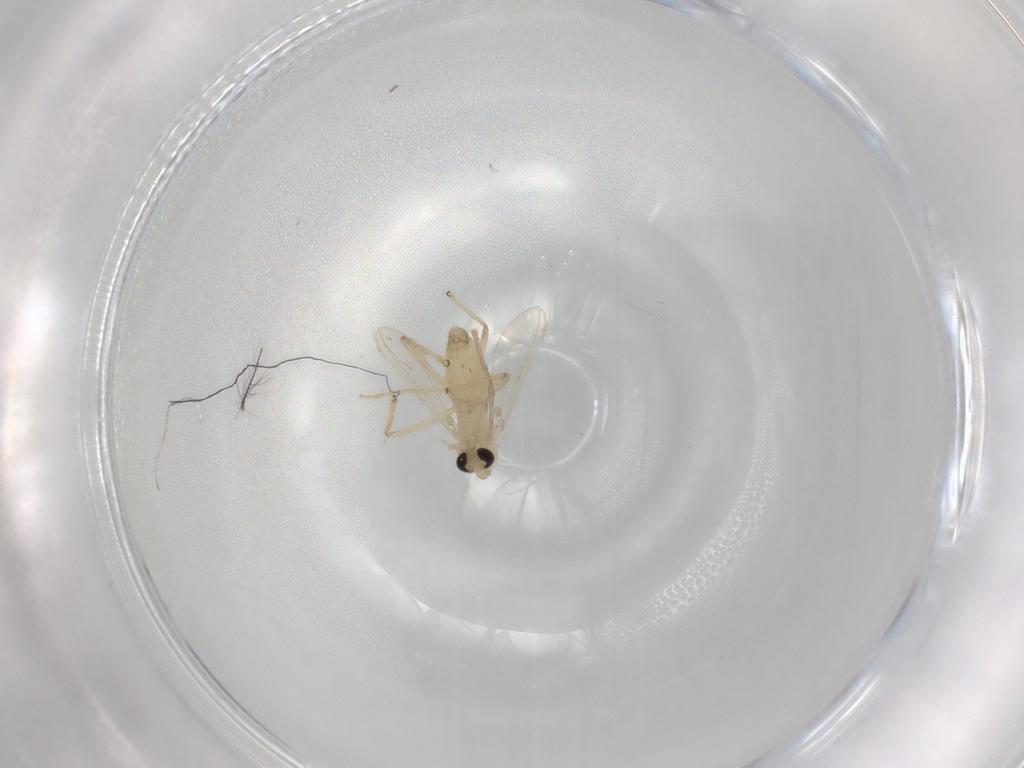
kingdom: Animalia
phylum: Arthropoda
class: Insecta
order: Diptera
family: Chironomidae
